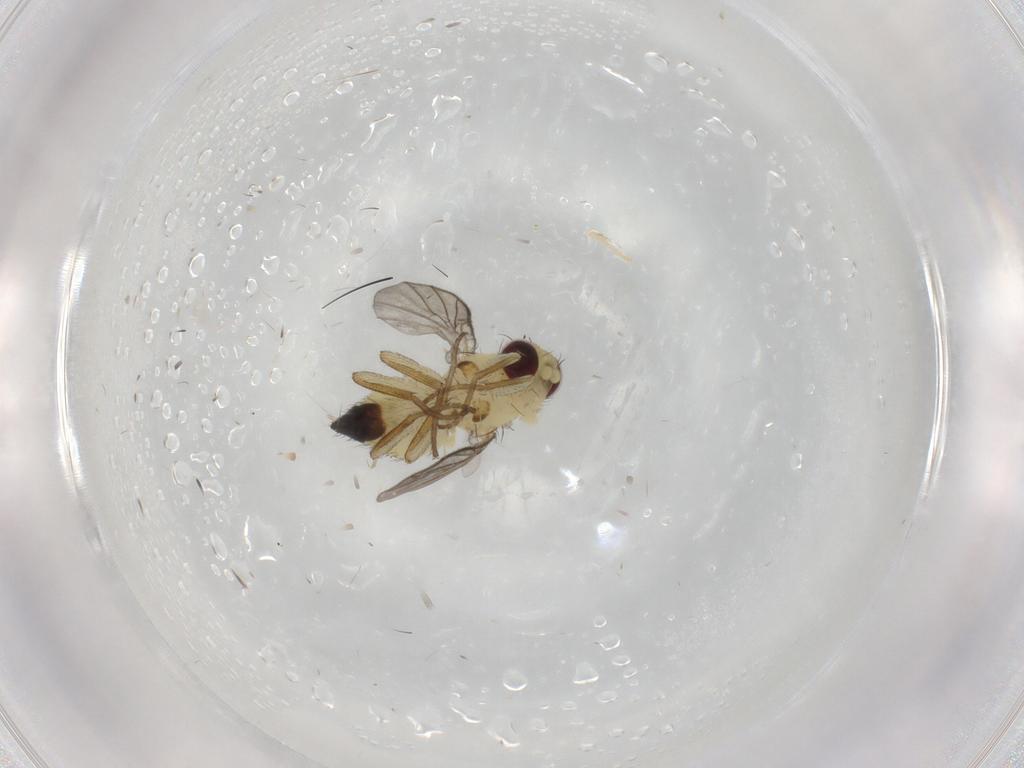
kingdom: Animalia
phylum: Arthropoda
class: Insecta
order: Diptera
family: Agromyzidae
